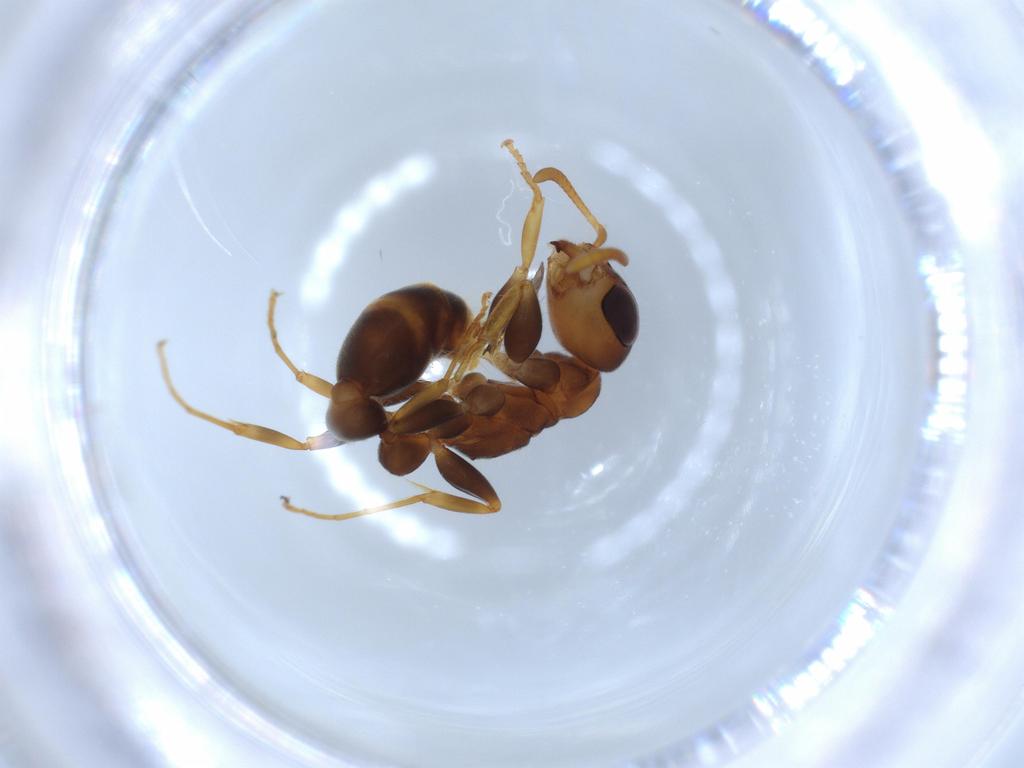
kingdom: Animalia
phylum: Arthropoda
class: Insecta
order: Hymenoptera
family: Formicidae
